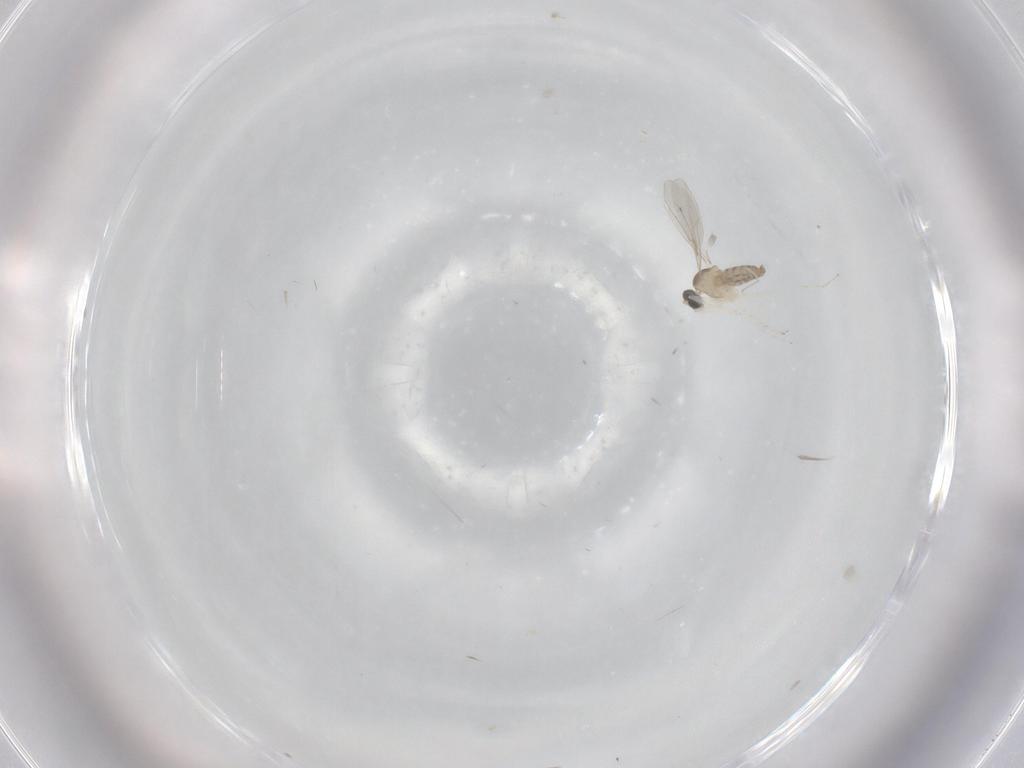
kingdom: Animalia
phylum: Arthropoda
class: Insecta
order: Diptera
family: Cecidomyiidae
